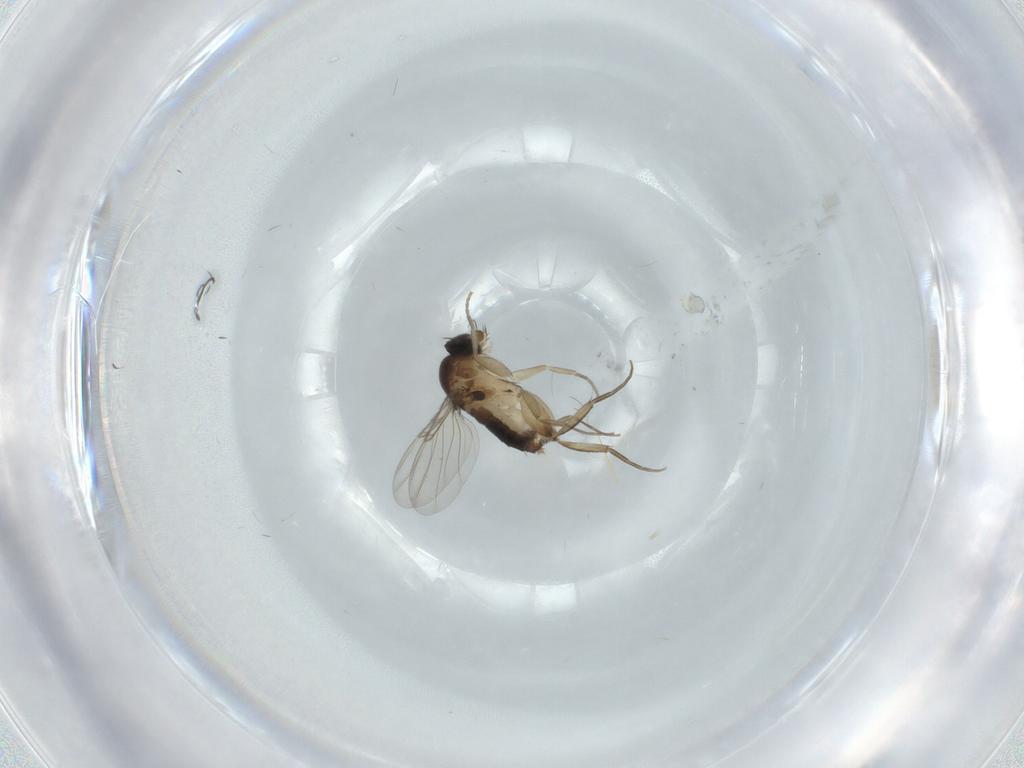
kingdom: Animalia
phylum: Arthropoda
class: Insecta
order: Diptera
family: Phoridae
